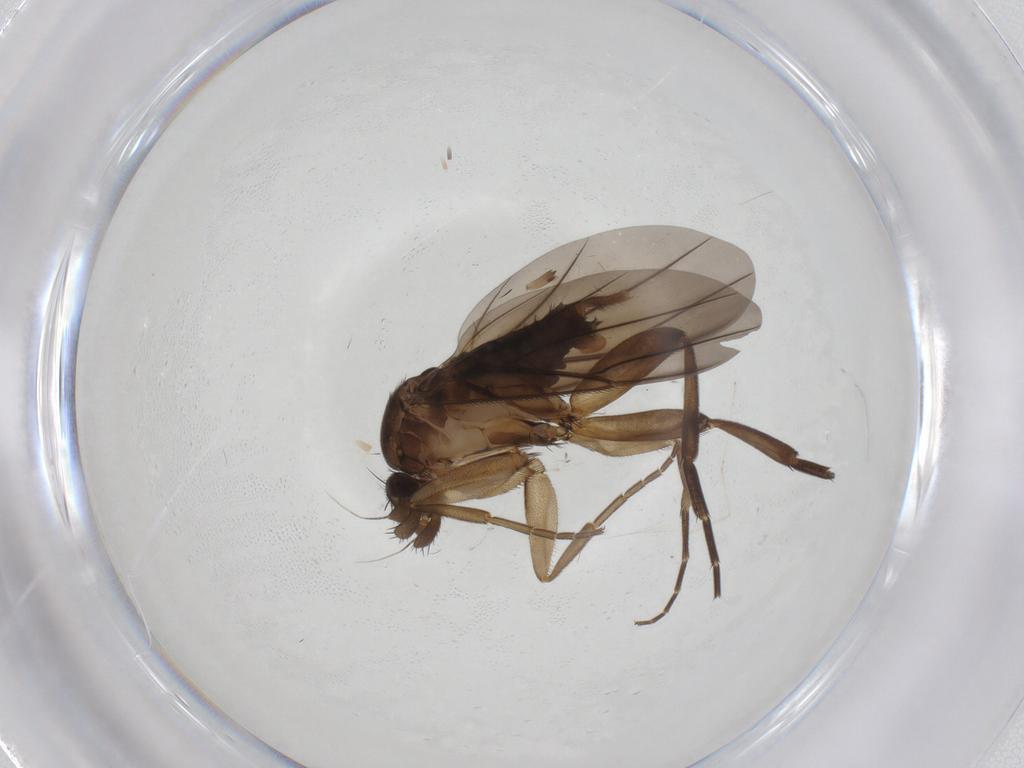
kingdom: Animalia
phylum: Arthropoda
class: Insecta
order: Diptera
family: Phoridae
